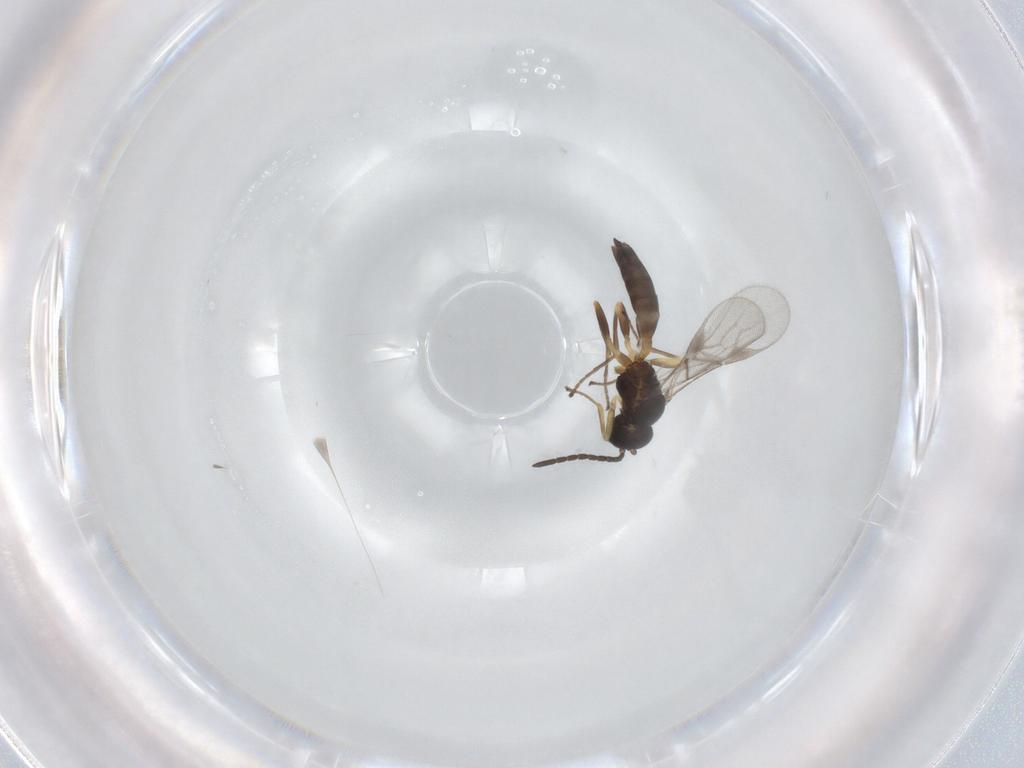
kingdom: Animalia
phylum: Arthropoda
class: Insecta
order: Hymenoptera
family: Braconidae
